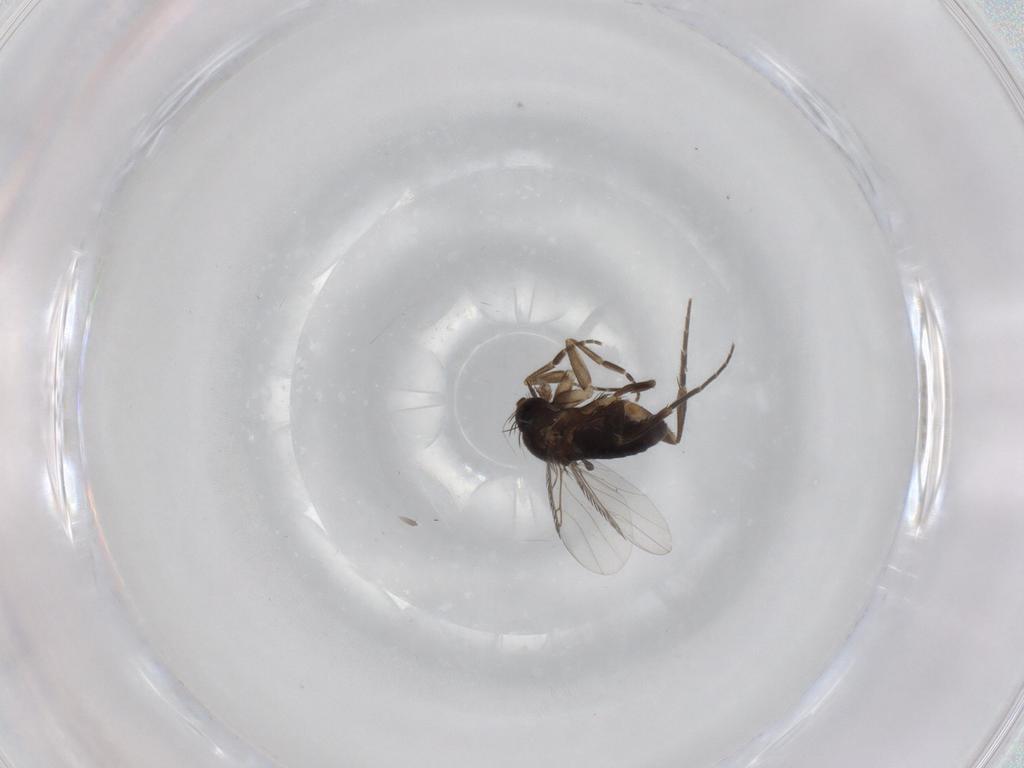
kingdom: Animalia
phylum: Arthropoda
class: Insecta
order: Diptera
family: Phoridae
